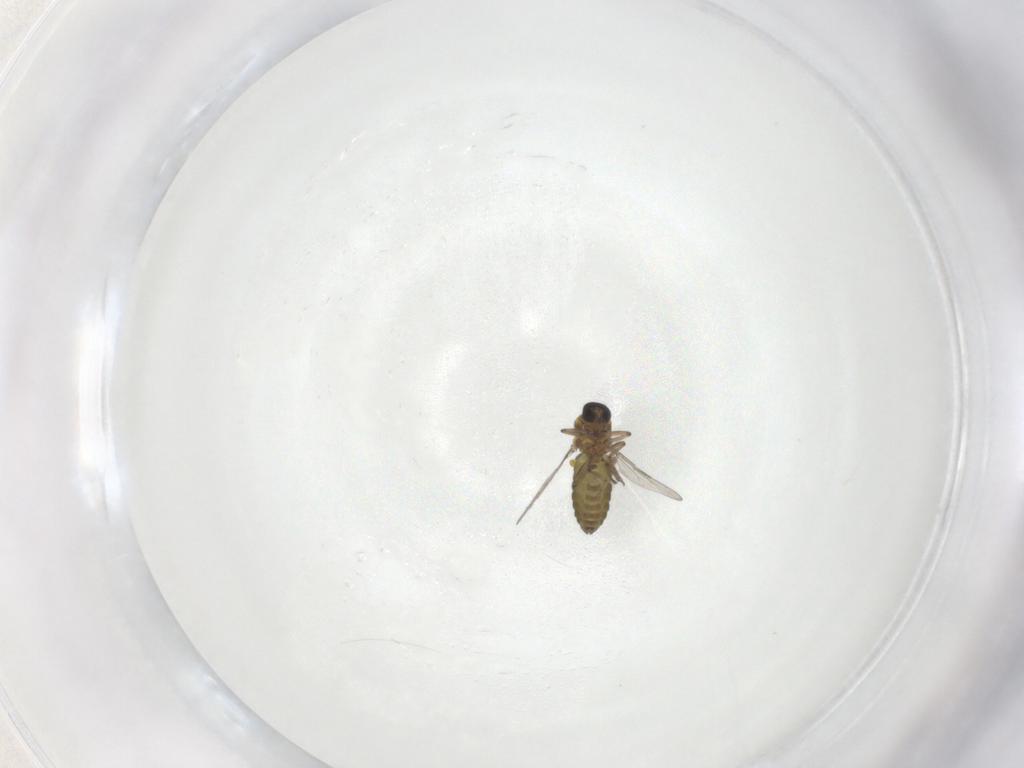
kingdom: Animalia
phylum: Arthropoda
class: Insecta
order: Diptera
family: Ceratopogonidae
